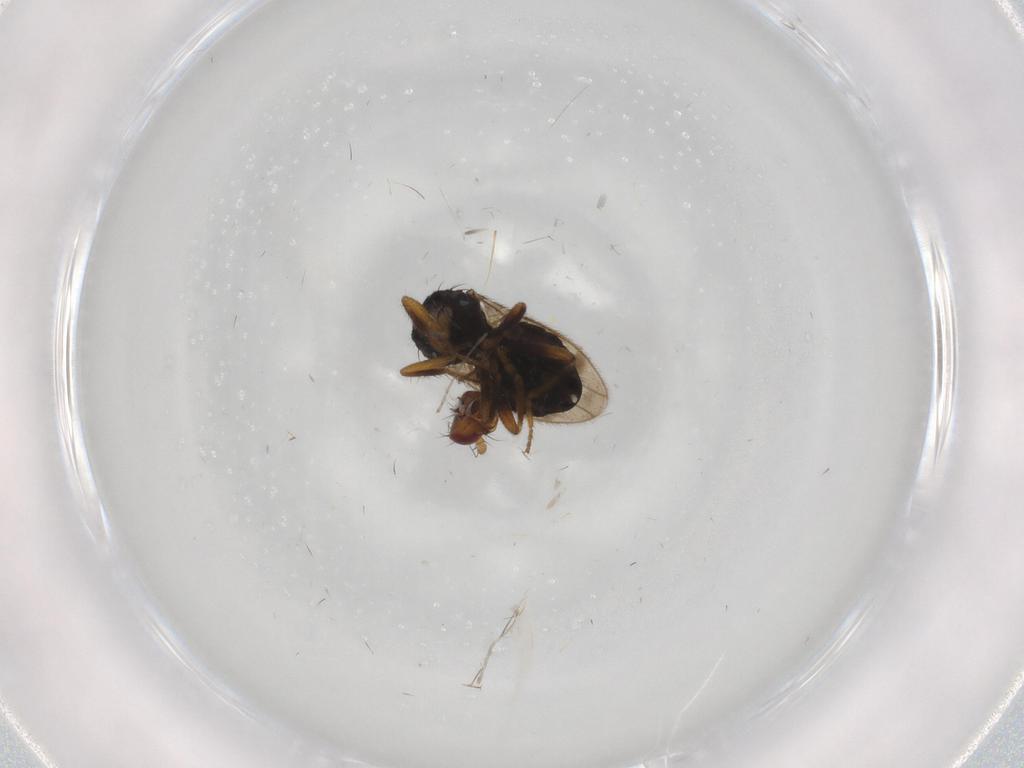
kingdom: Animalia
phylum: Arthropoda
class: Insecta
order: Diptera
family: Sphaeroceridae
